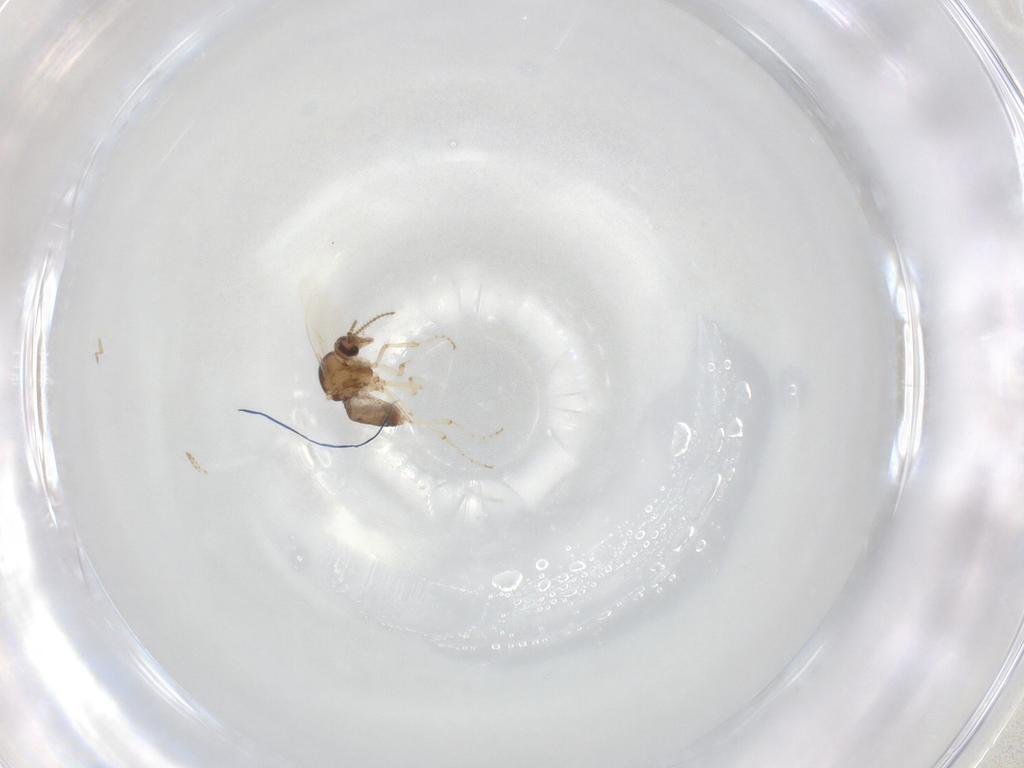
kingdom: Animalia
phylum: Arthropoda
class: Insecta
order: Diptera
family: Ceratopogonidae
